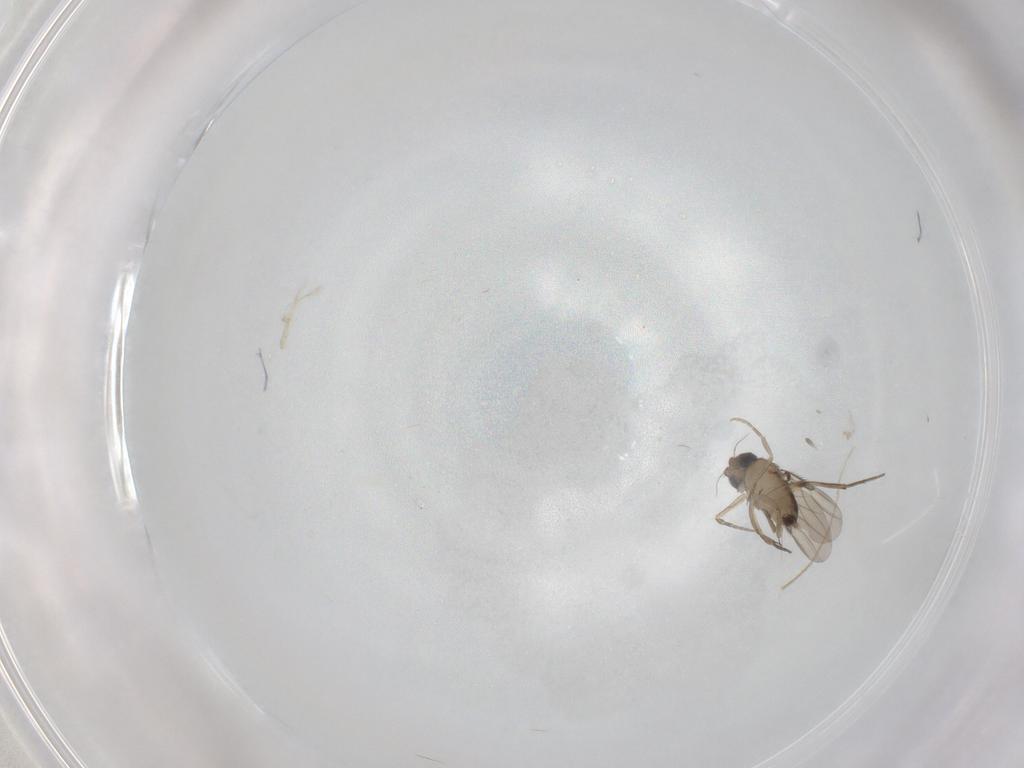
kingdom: Animalia
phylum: Arthropoda
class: Insecta
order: Diptera
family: Phoridae
